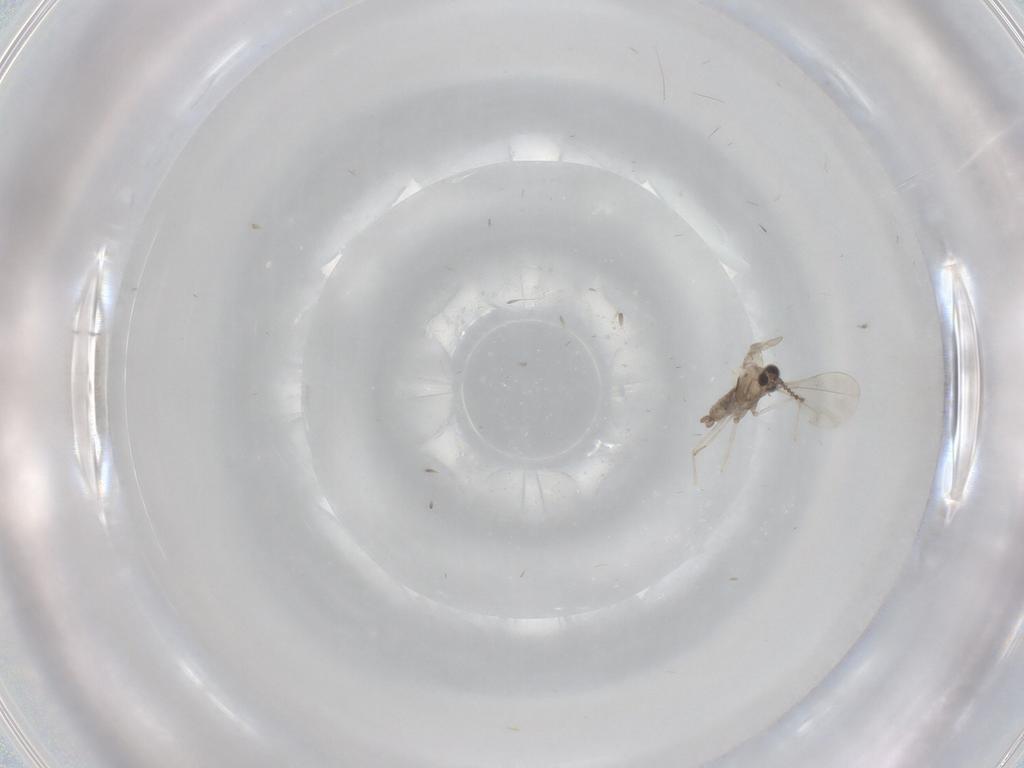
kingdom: Animalia
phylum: Arthropoda
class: Insecta
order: Diptera
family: Cecidomyiidae
